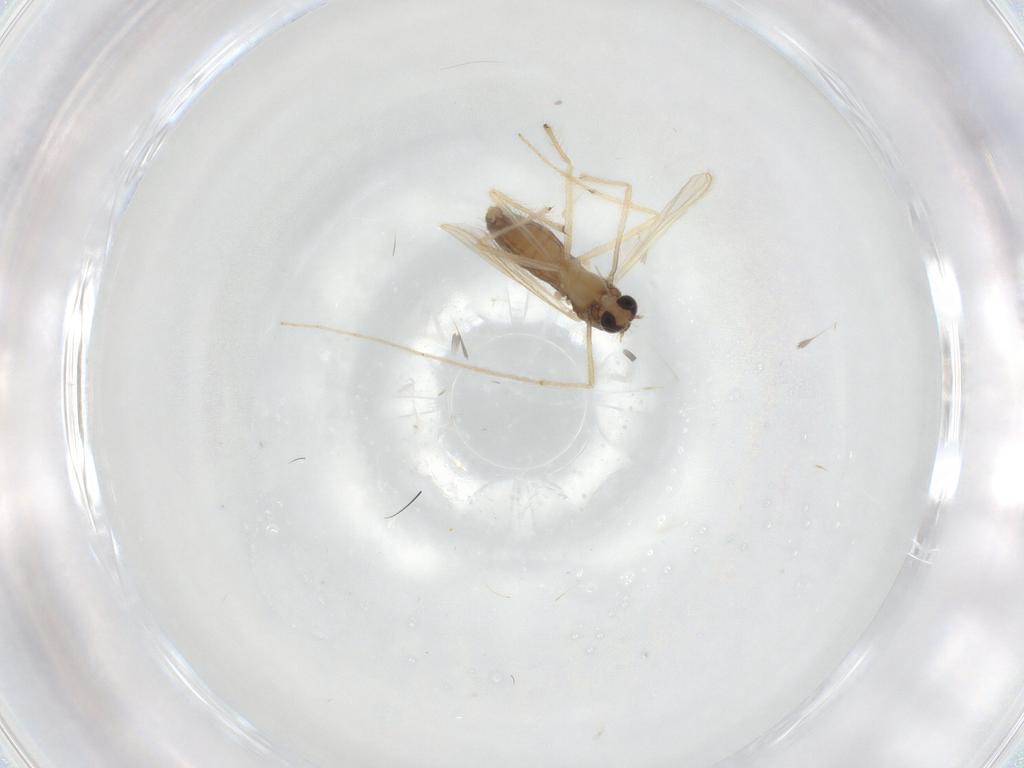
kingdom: Animalia
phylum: Arthropoda
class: Insecta
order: Diptera
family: Chironomidae
